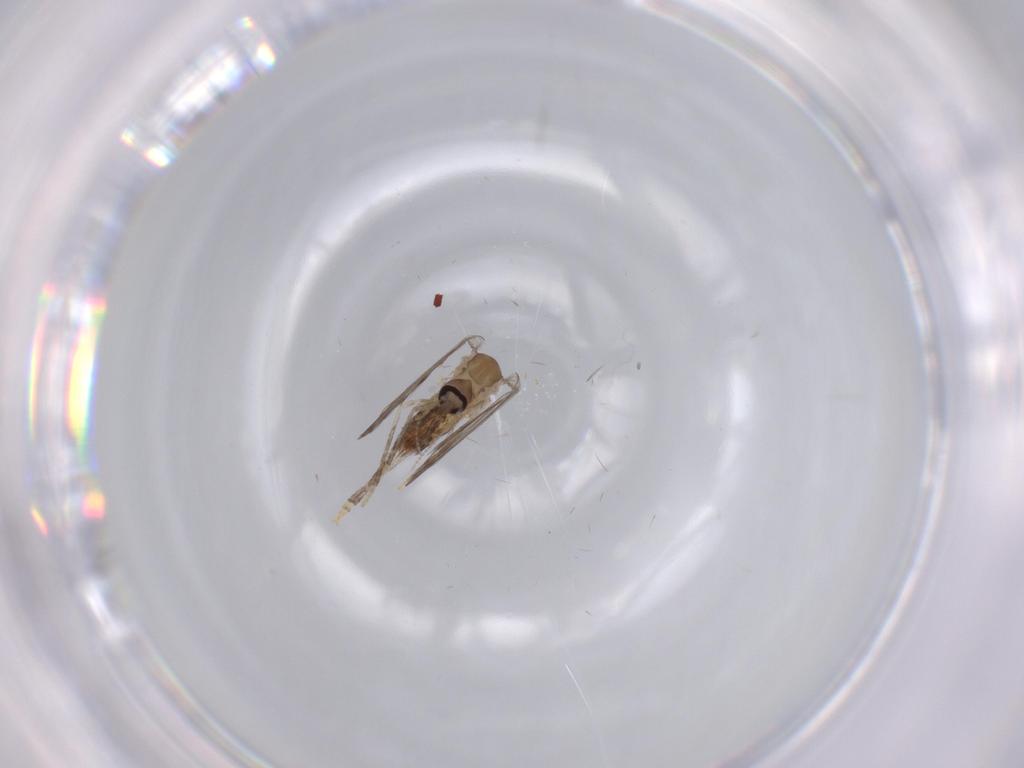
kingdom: Animalia
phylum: Arthropoda
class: Insecta
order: Diptera
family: Psychodidae
